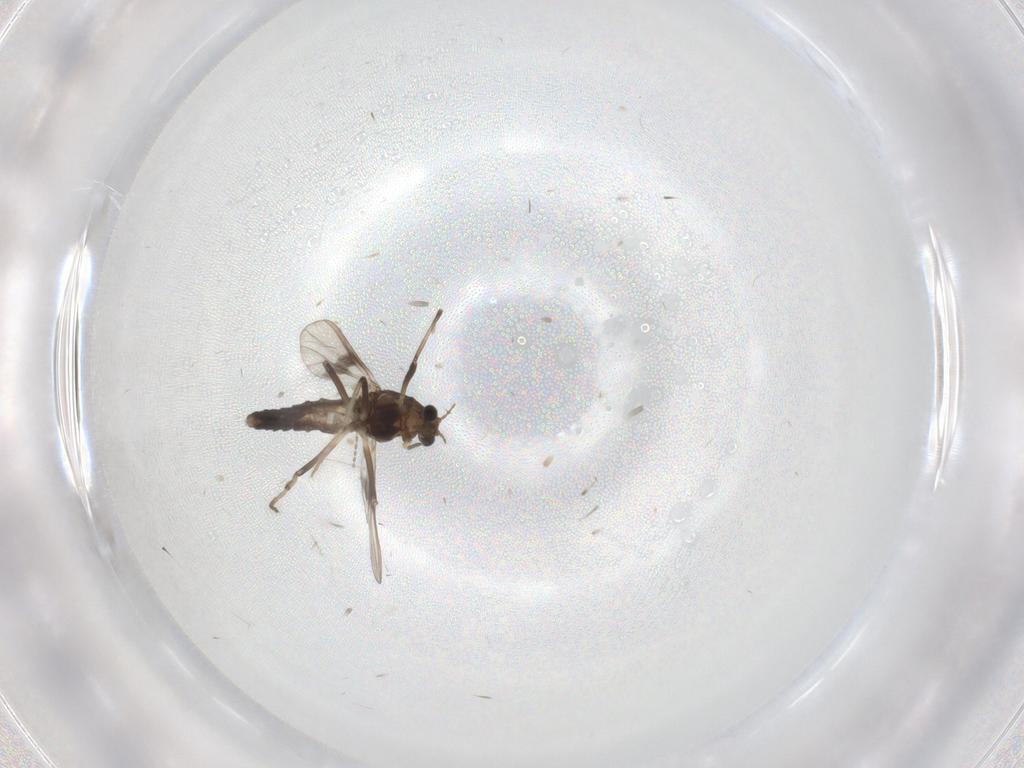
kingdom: Animalia
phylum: Arthropoda
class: Insecta
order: Diptera
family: Chironomidae
